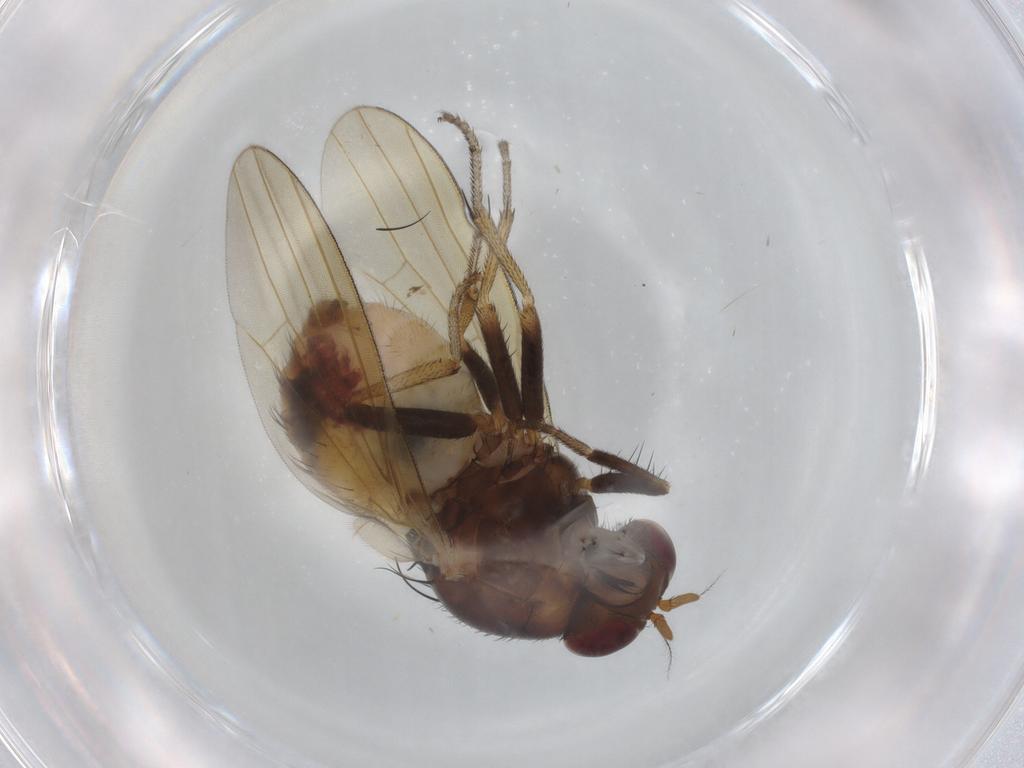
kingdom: Animalia
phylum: Arthropoda
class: Insecta
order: Diptera
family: Lauxaniidae
